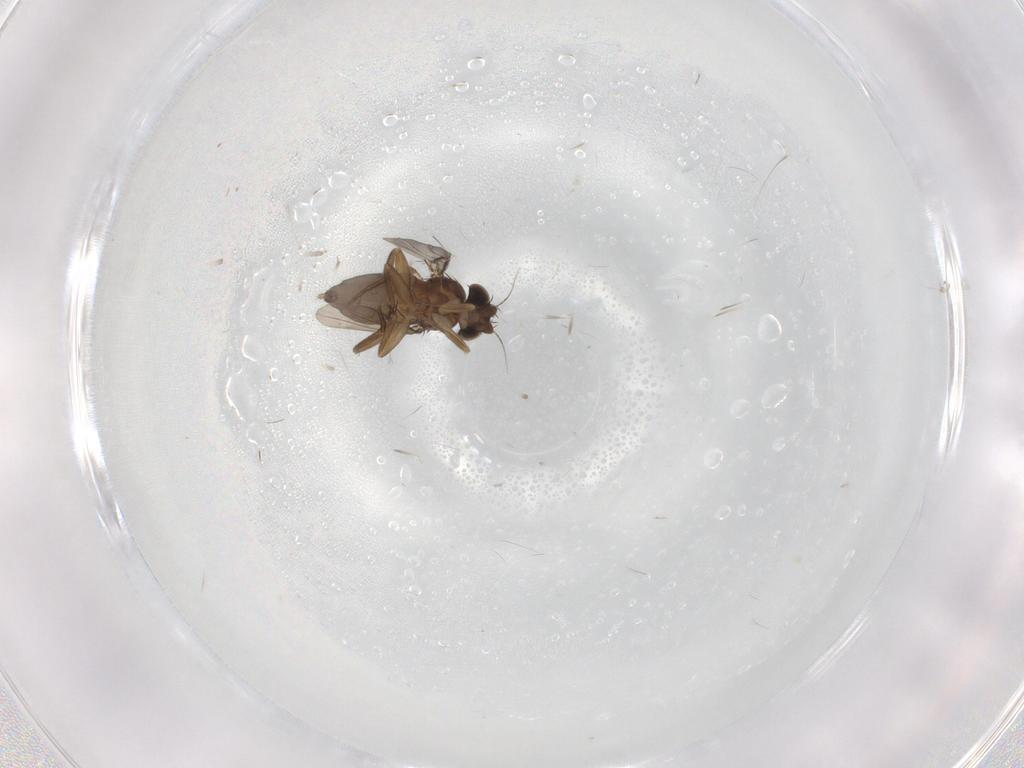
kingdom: Animalia
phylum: Arthropoda
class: Insecta
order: Diptera
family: Phoridae
